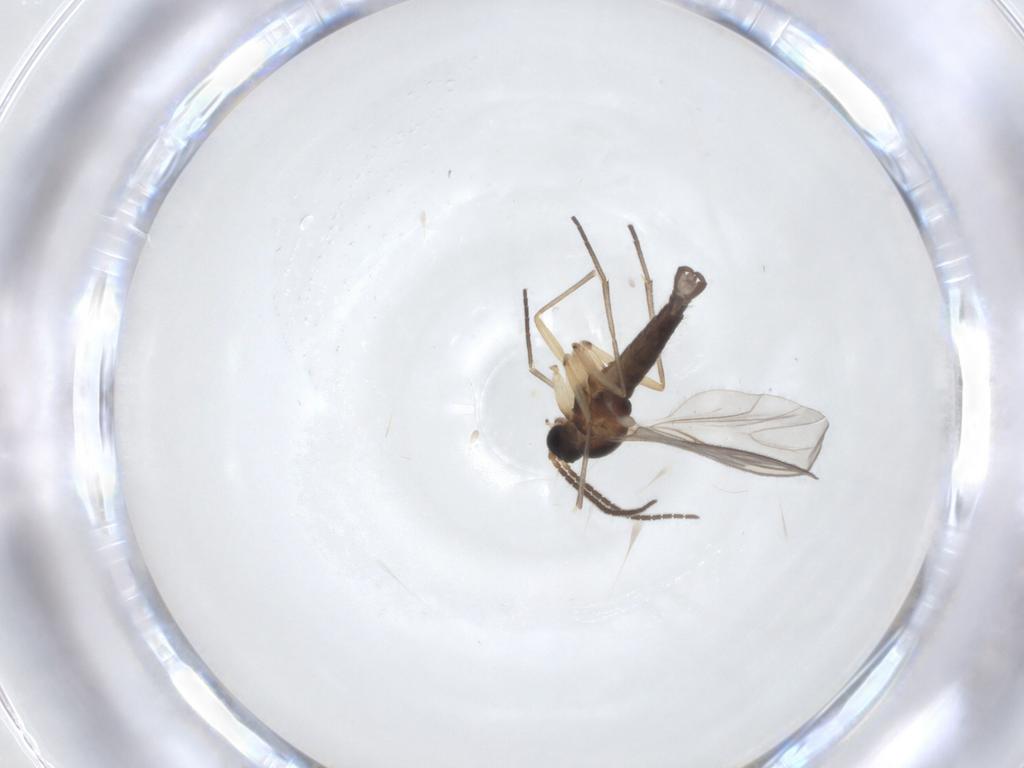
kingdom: Animalia
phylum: Arthropoda
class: Insecta
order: Diptera
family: Sciaridae
